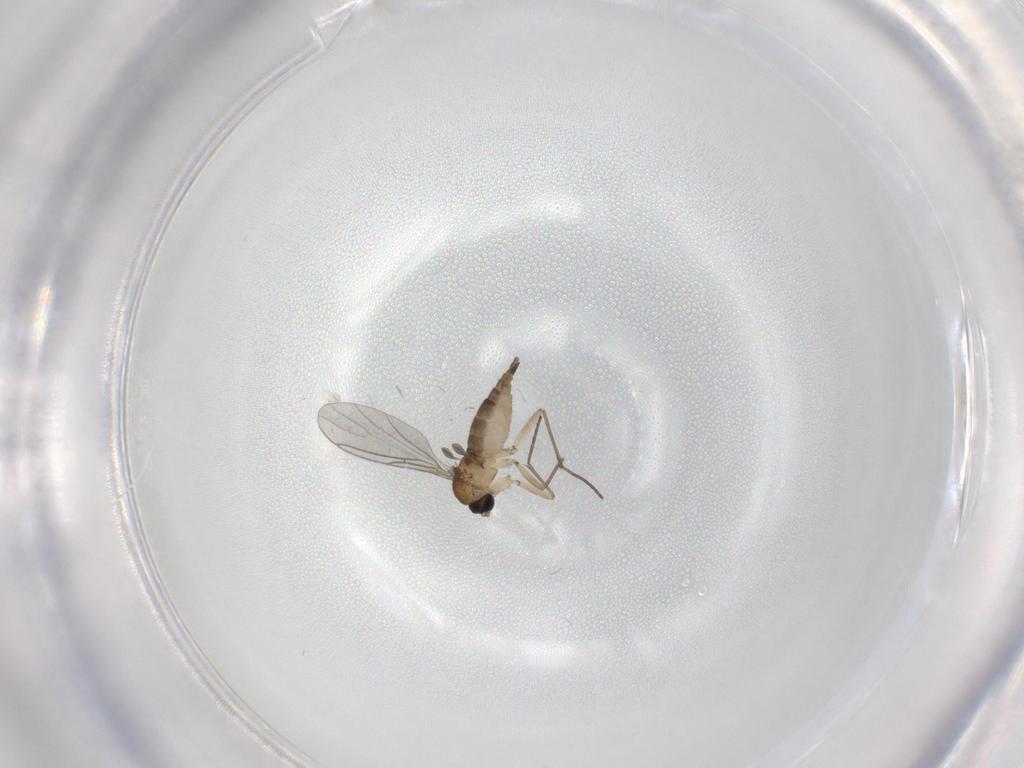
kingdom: Animalia
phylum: Arthropoda
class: Insecta
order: Diptera
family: Sciaridae
